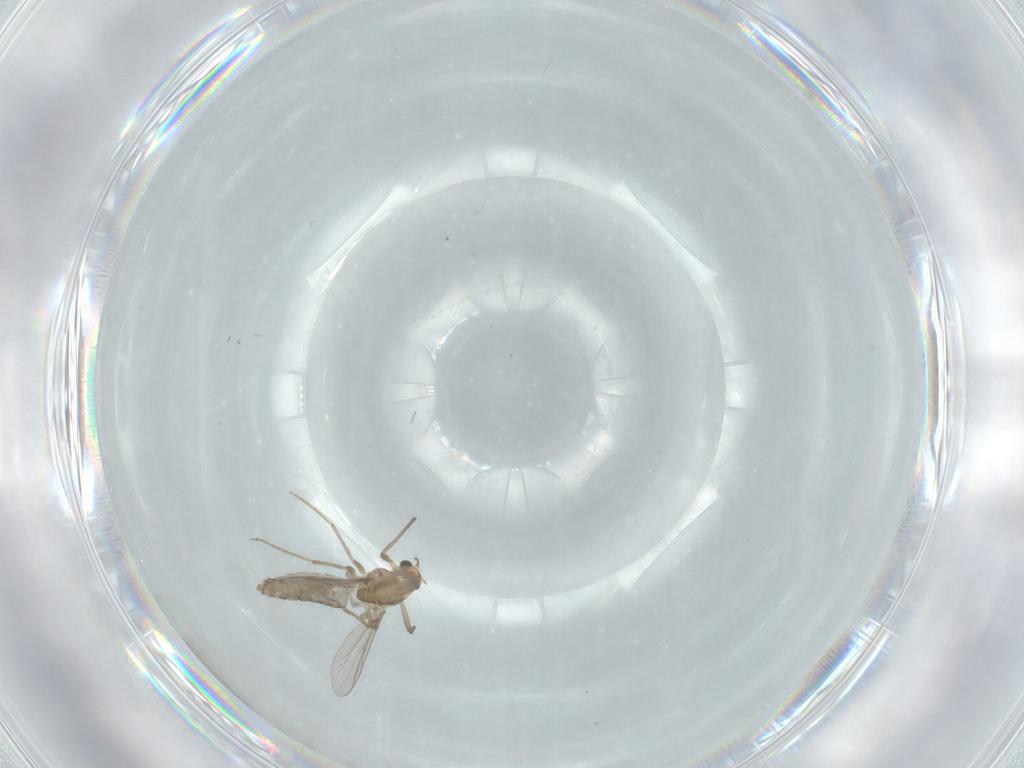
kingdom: Animalia
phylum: Arthropoda
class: Insecta
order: Diptera
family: Chironomidae
